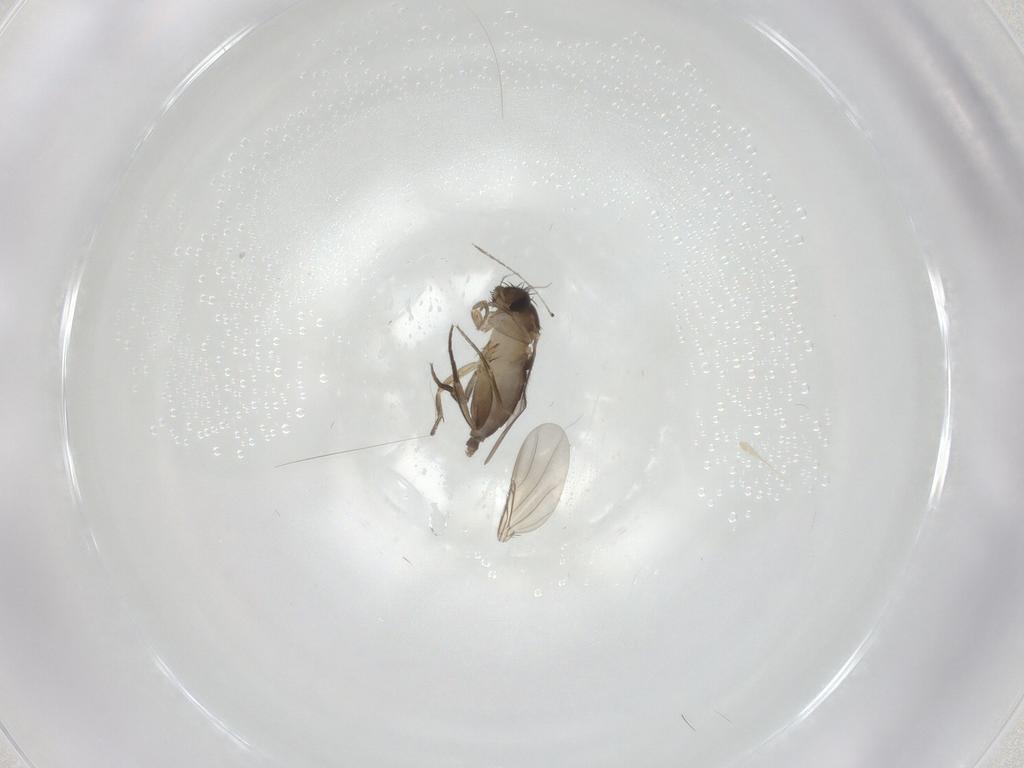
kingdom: Animalia
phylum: Arthropoda
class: Insecta
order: Diptera
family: Phoridae
